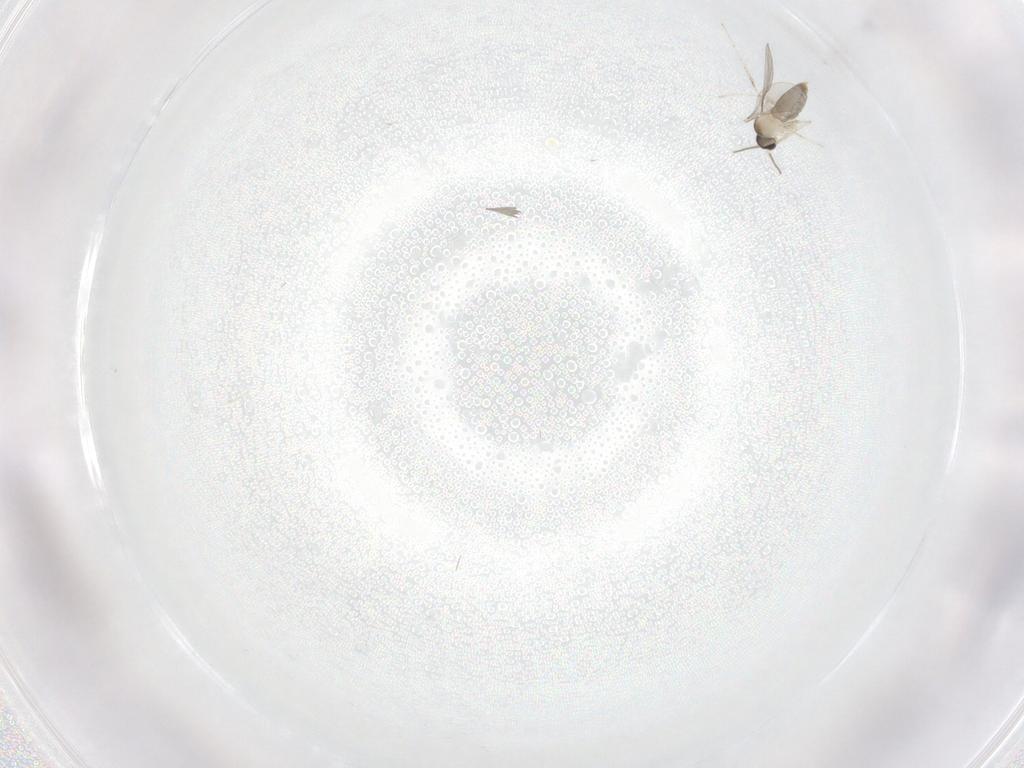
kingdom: Animalia
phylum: Arthropoda
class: Insecta
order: Diptera
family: Cecidomyiidae
